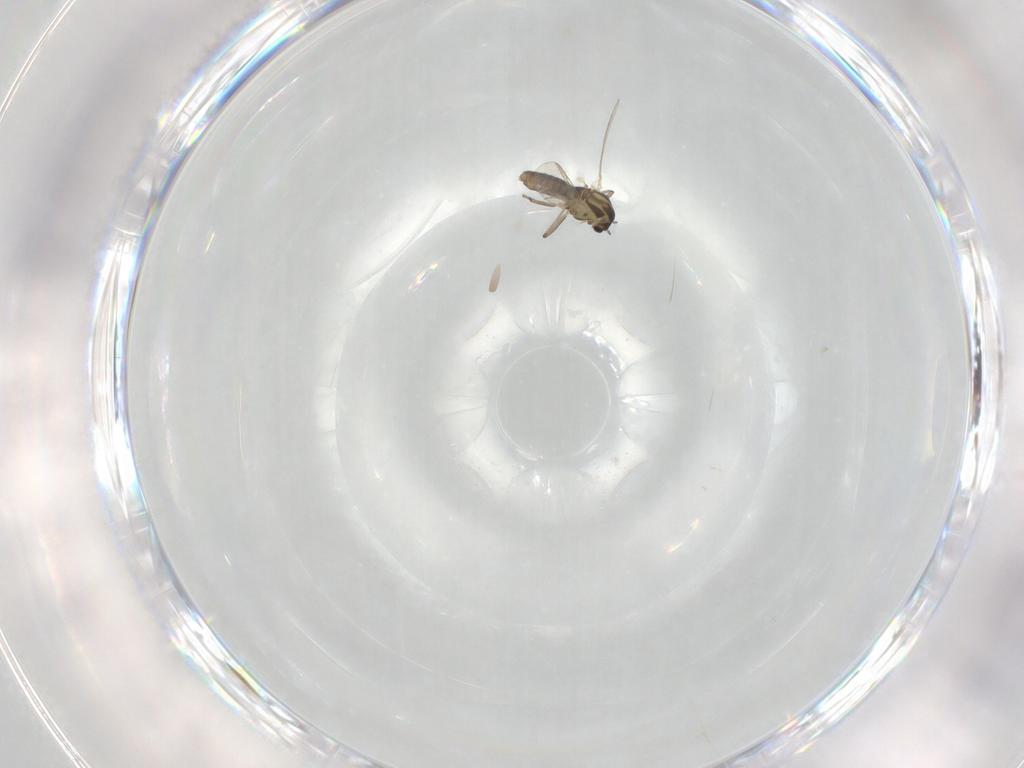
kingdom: Animalia
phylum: Arthropoda
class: Insecta
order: Diptera
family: Chironomidae
